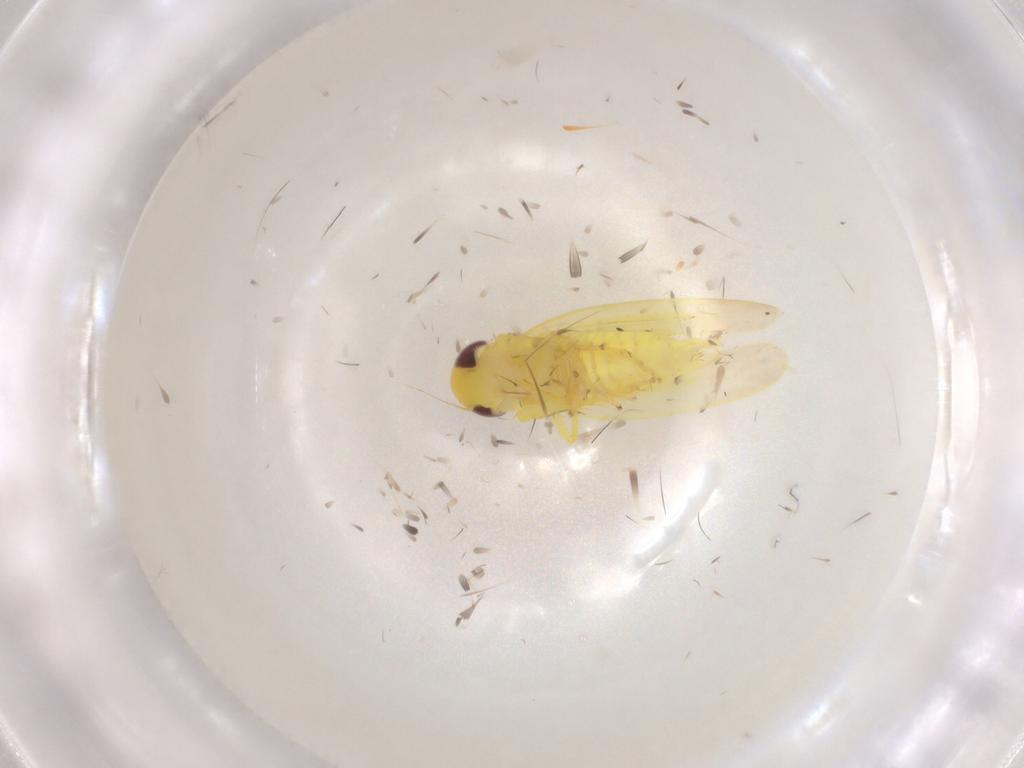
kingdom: Animalia
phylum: Arthropoda
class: Insecta
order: Hemiptera
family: Cicadellidae
